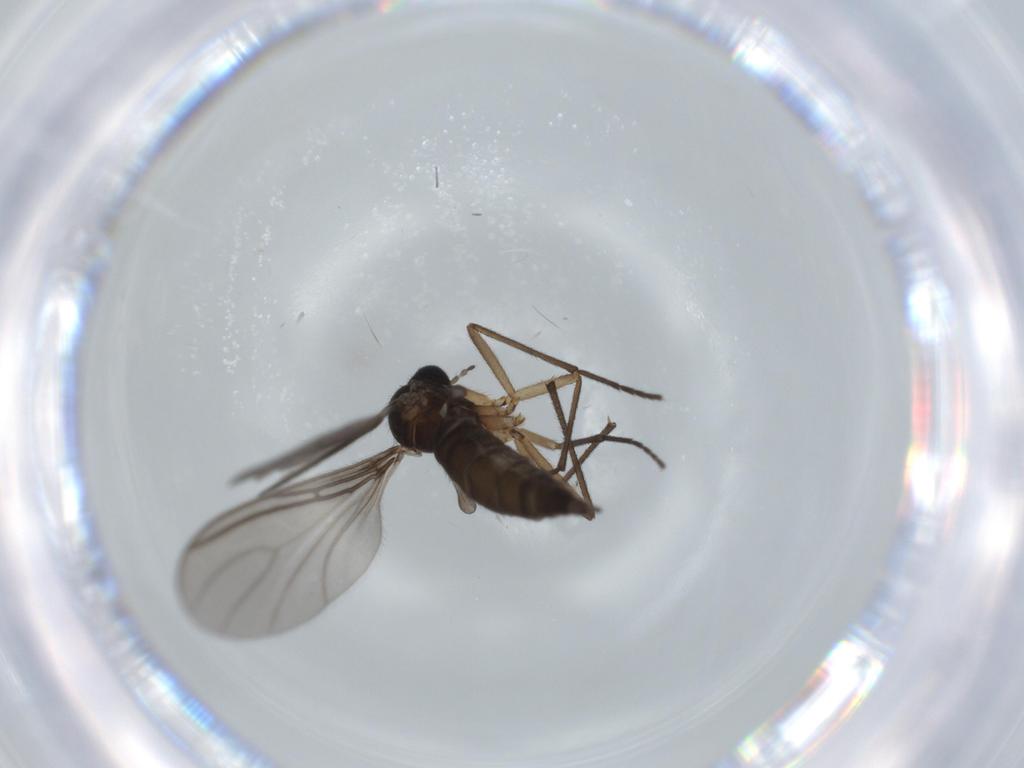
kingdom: Animalia
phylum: Arthropoda
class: Insecta
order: Diptera
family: Sciaridae
